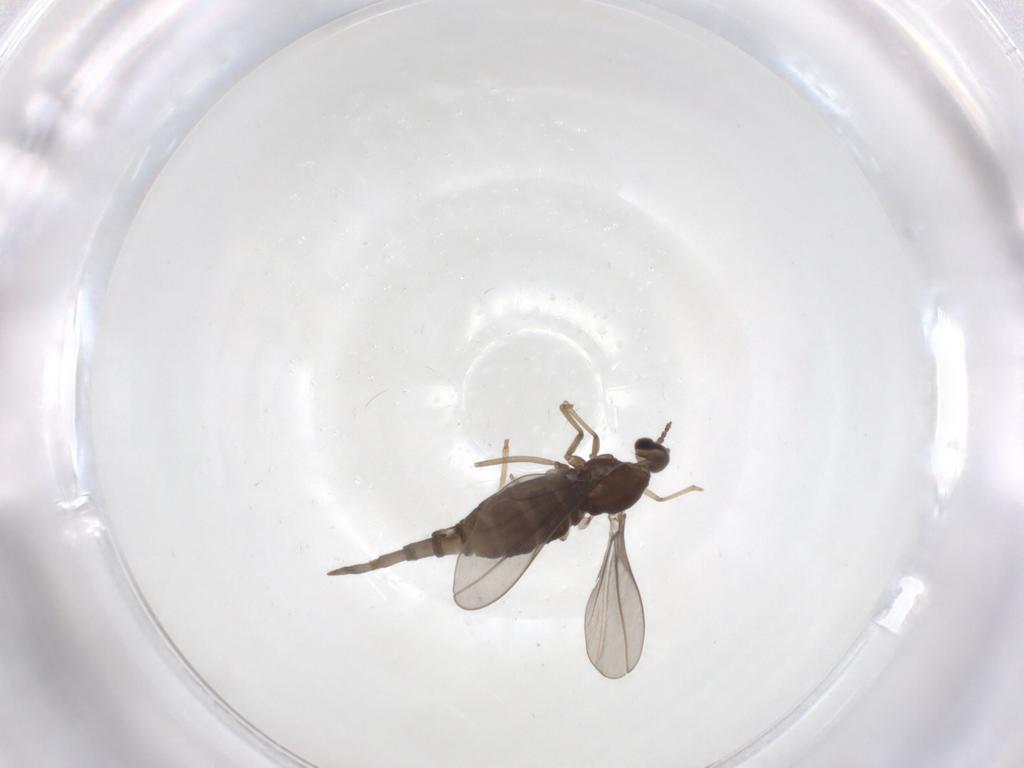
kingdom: Animalia
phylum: Arthropoda
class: Insecta
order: Diptera
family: Cecidomyiidae
